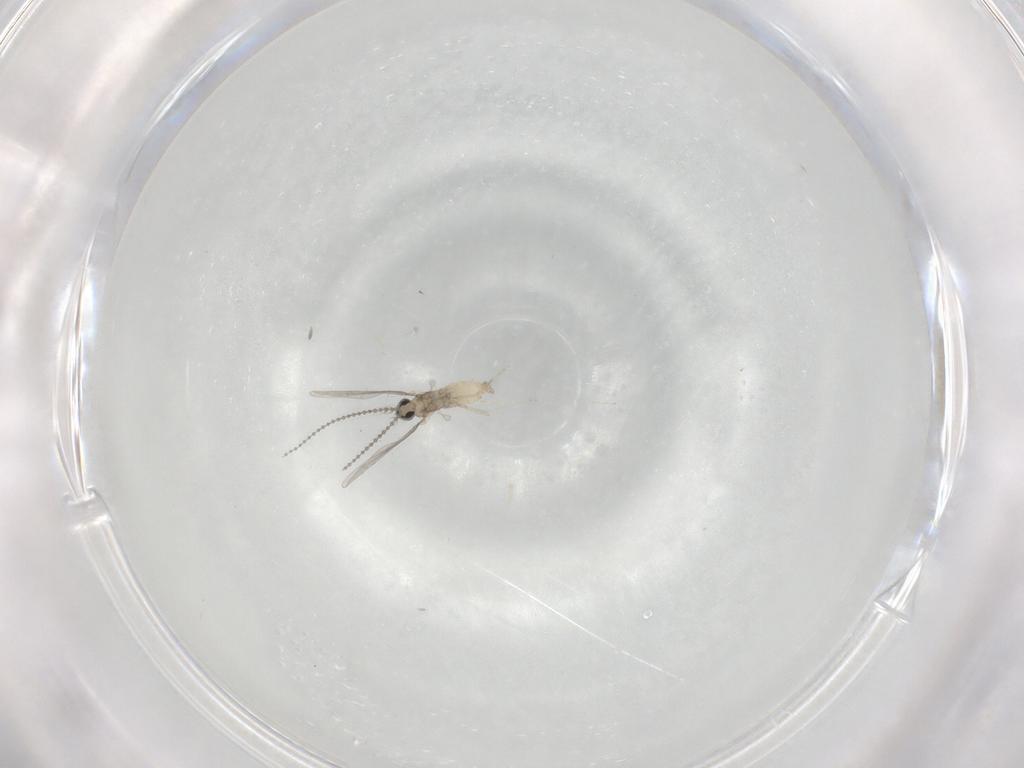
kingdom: Animalia
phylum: Arthropoda
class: Insecta
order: Diptera
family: Cecidomyiidae
